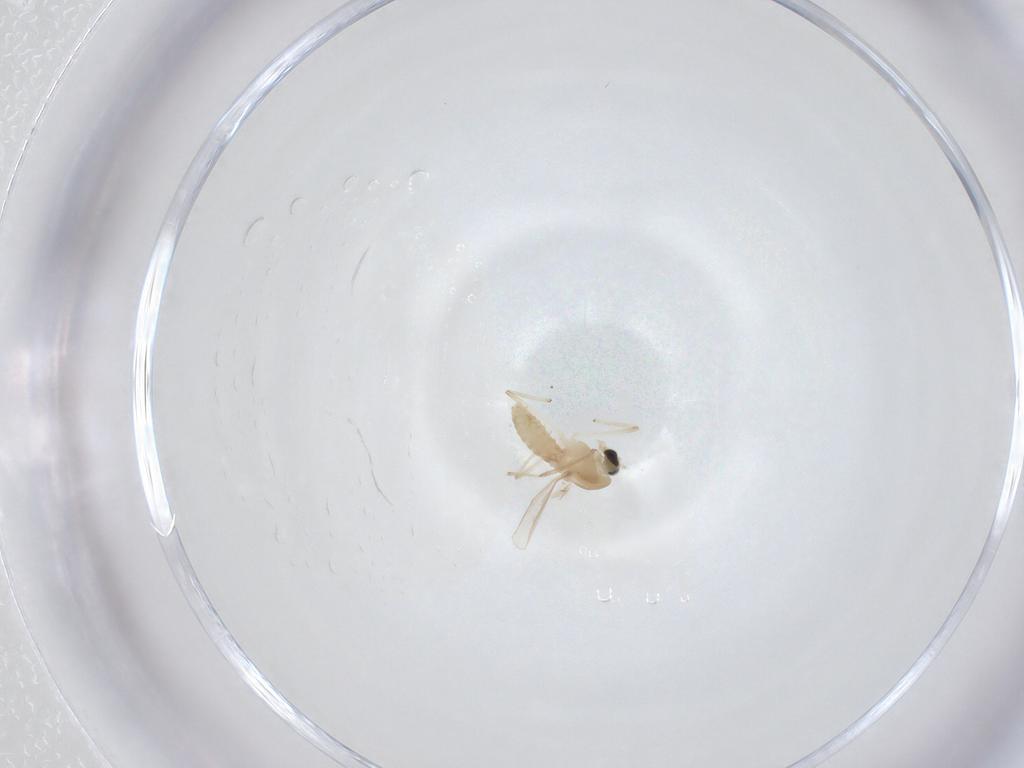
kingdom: Animalia
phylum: Arthropoda
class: Insecta
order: Diptera
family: Chironomidae
